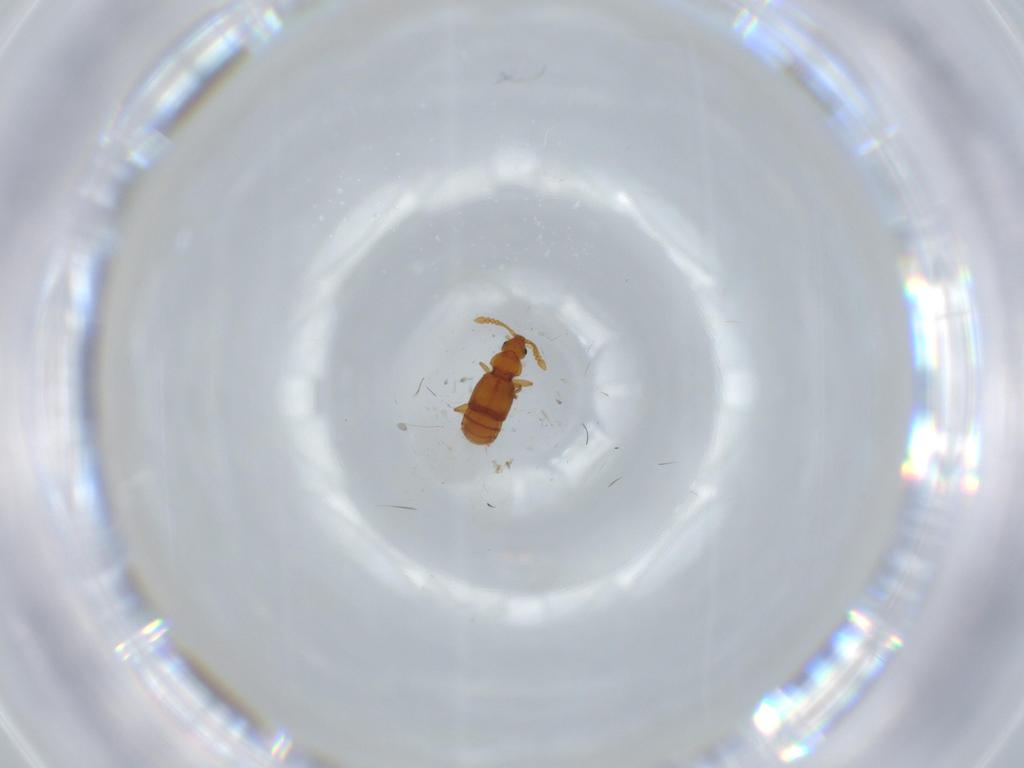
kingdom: Animalia
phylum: Arthropoda
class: Insecta
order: Coleoptera
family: Staphylinidae
